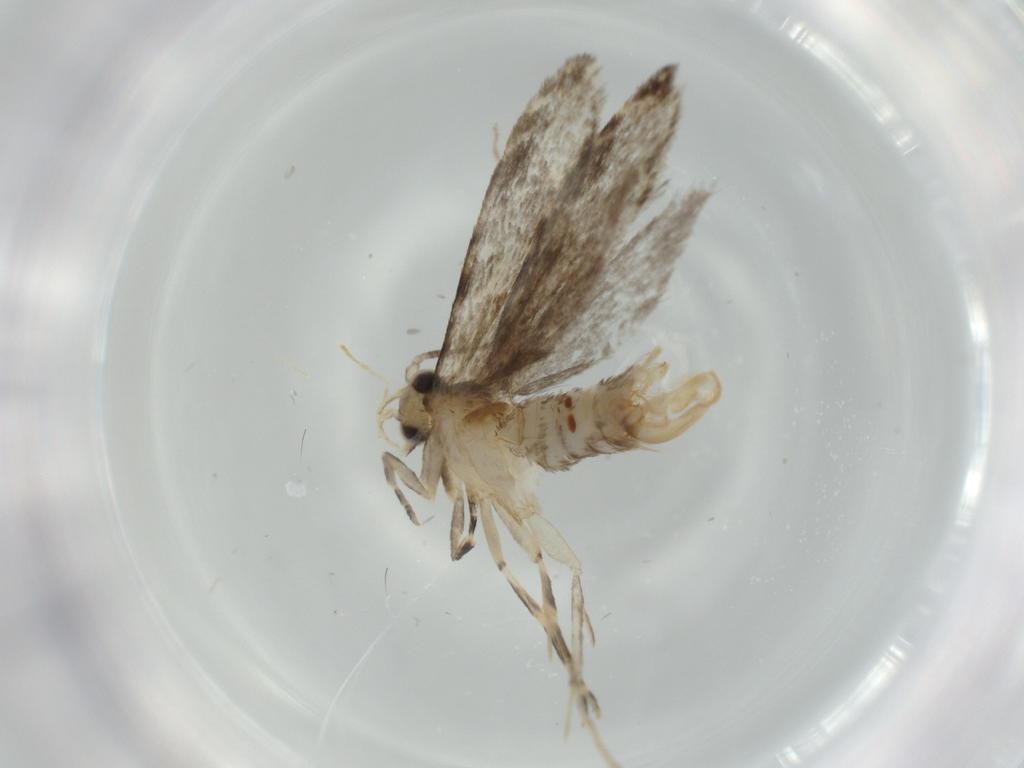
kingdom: Animalia
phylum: Arthropoda
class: Insecta
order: Lepidoptera
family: Tineidae
